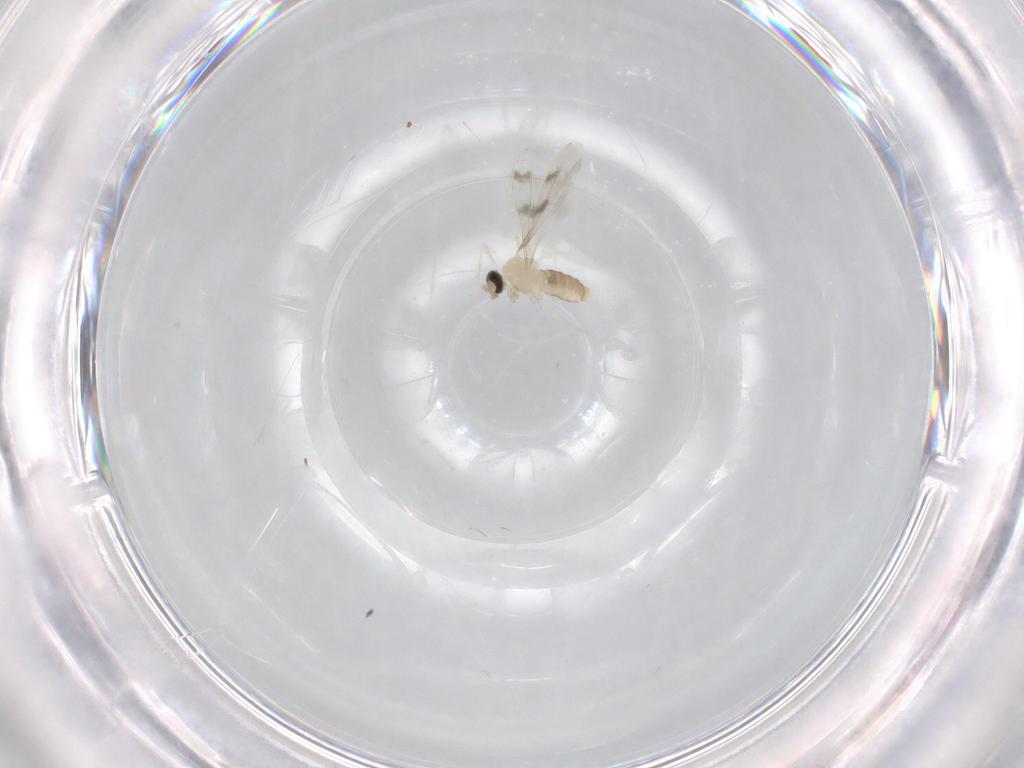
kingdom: Animalia
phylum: Arthropoda
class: Insecta
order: Diptera
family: Cecidomyiidae
